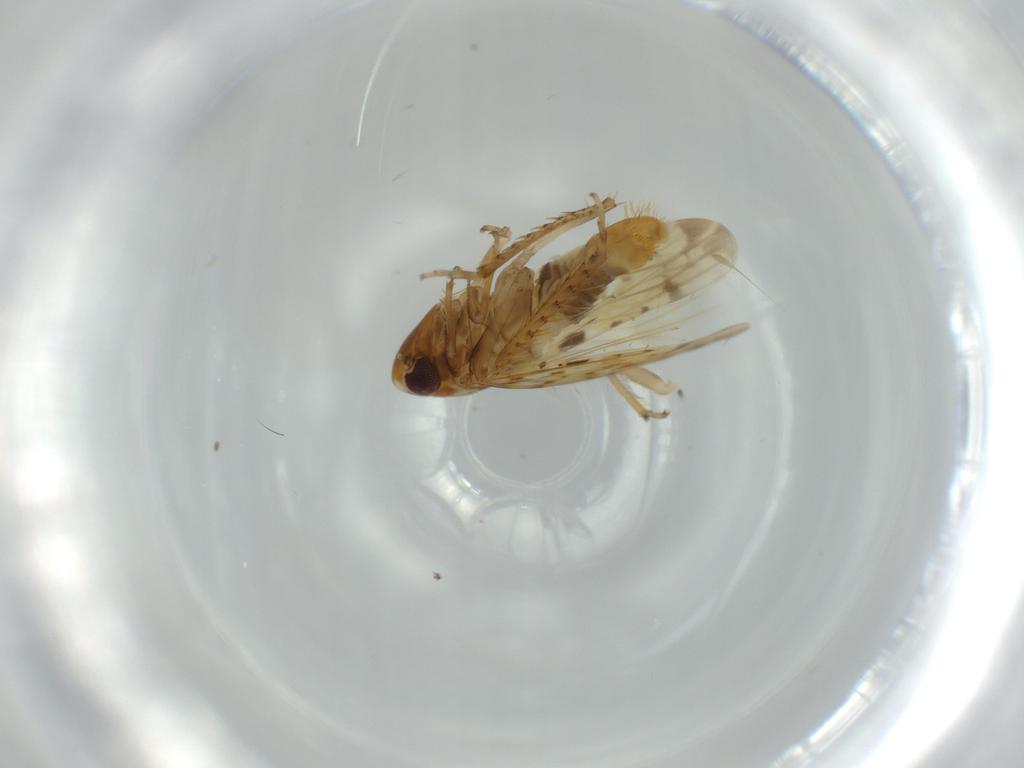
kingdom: Animalia
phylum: Arthropoda
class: Insecta
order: Hemiptera
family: Cicadellidae
